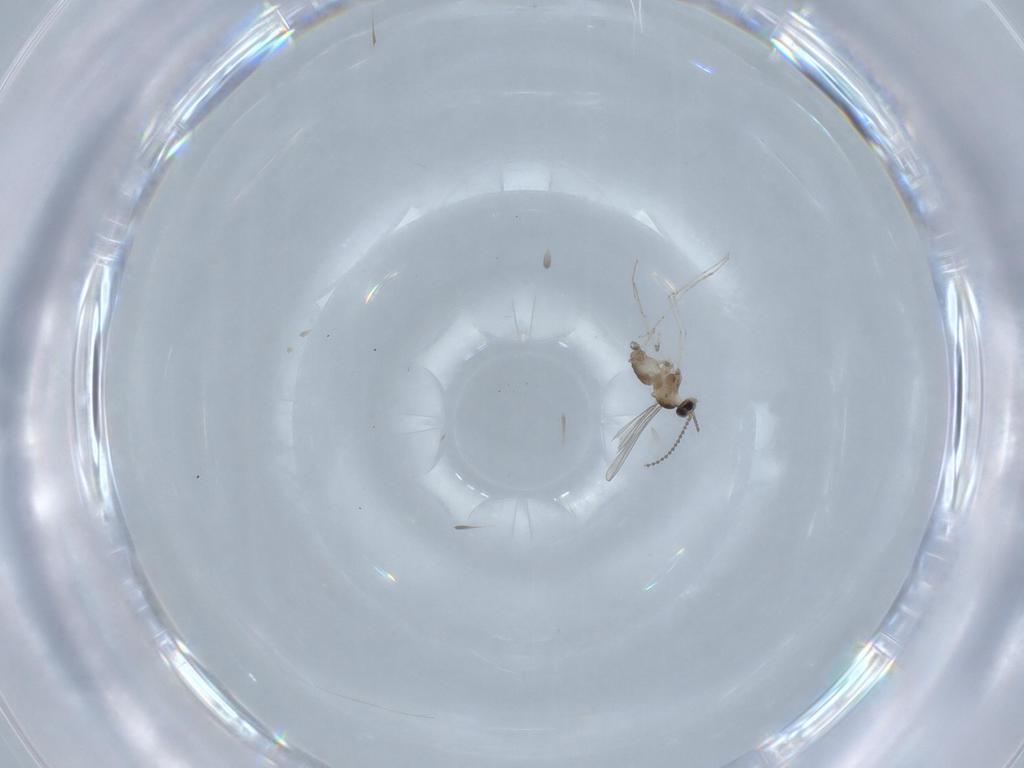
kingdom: Animalia
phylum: Arthropoda
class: Insecta
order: Diptera
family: Cecidomyiidae
